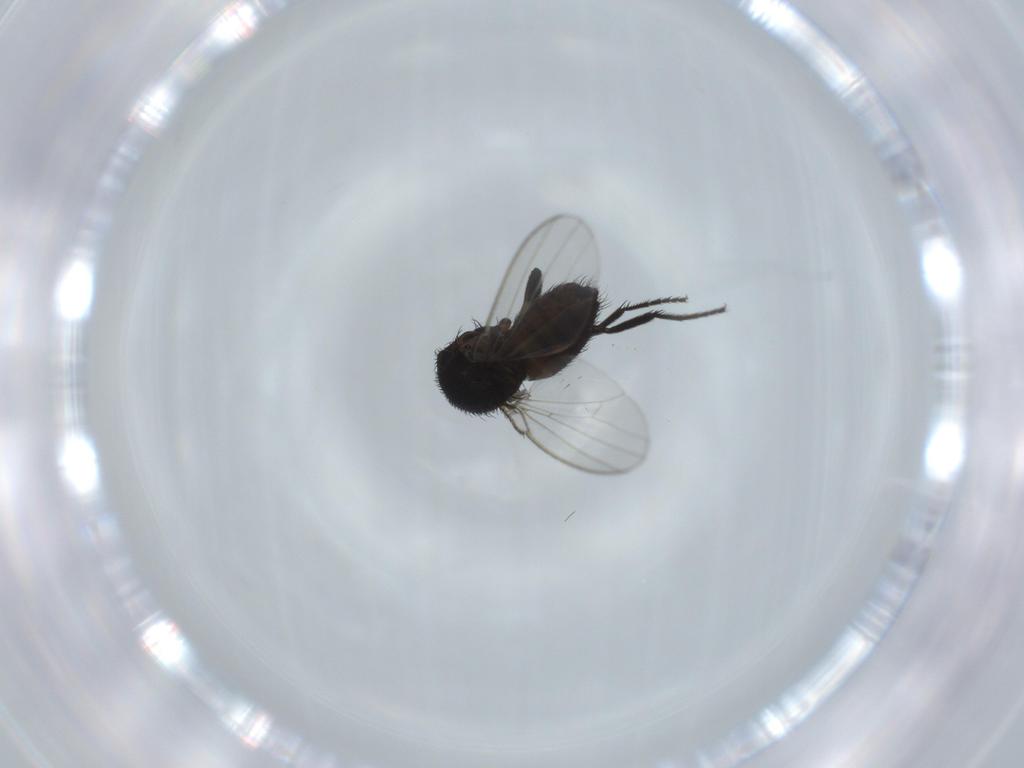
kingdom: Animalia
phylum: Arthropoda
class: Insecta
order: Diptera
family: Milichiidae
